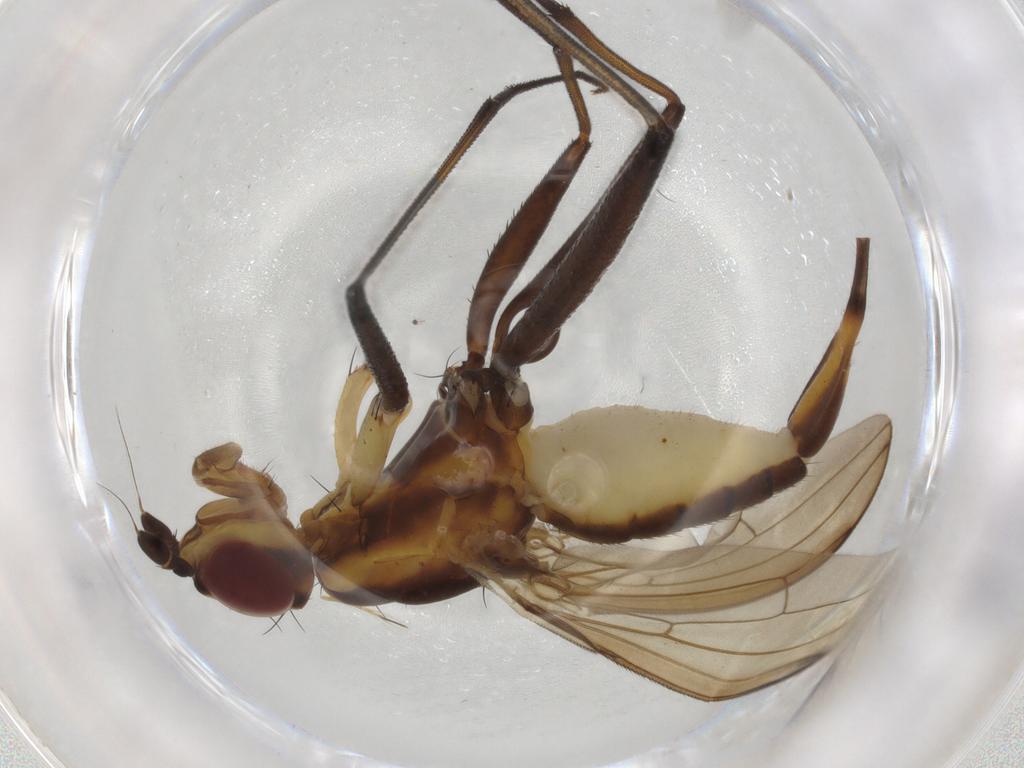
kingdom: Animalia
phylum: Arthropoda
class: Insecta
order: Diptera
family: Neriidae
